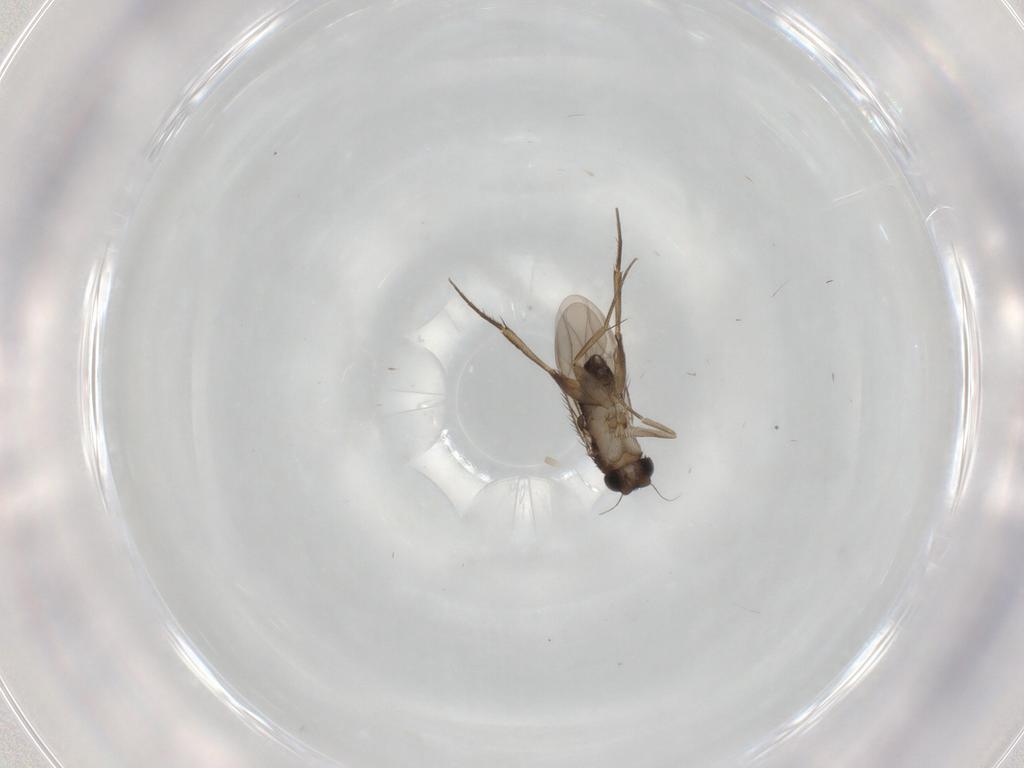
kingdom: Animalia
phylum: Arthropoda
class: Insecta
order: Diptera
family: Phoridae
